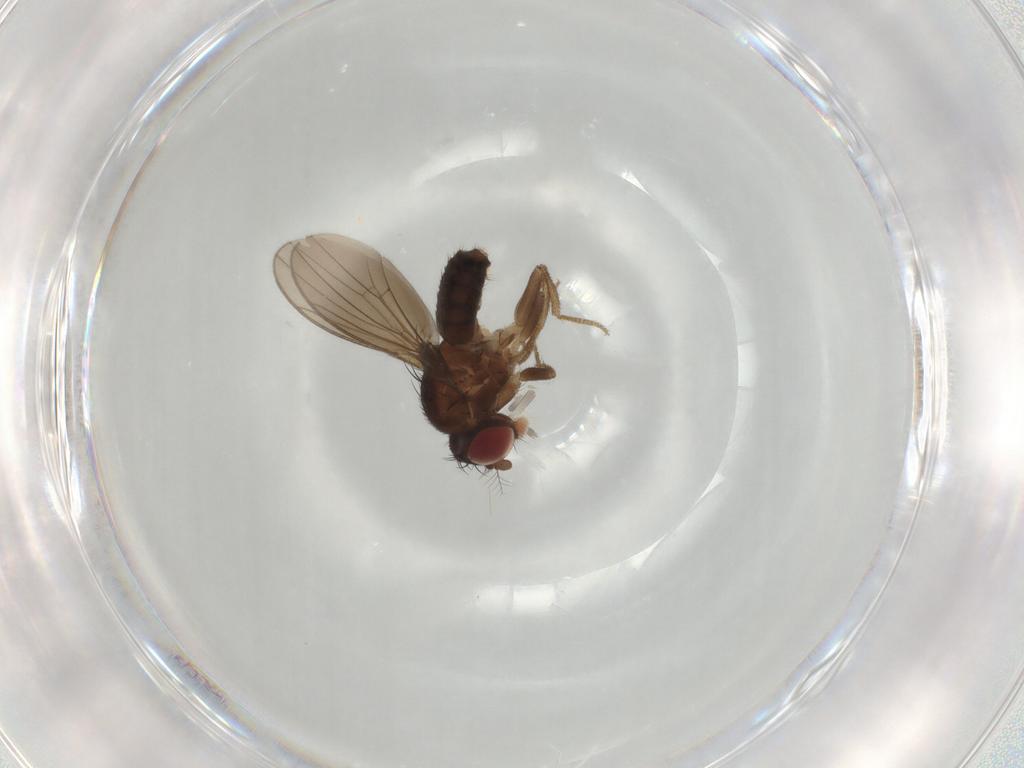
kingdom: Animalia
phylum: Arthropoda
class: Insecta
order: Diptera
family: Drosophilidae
